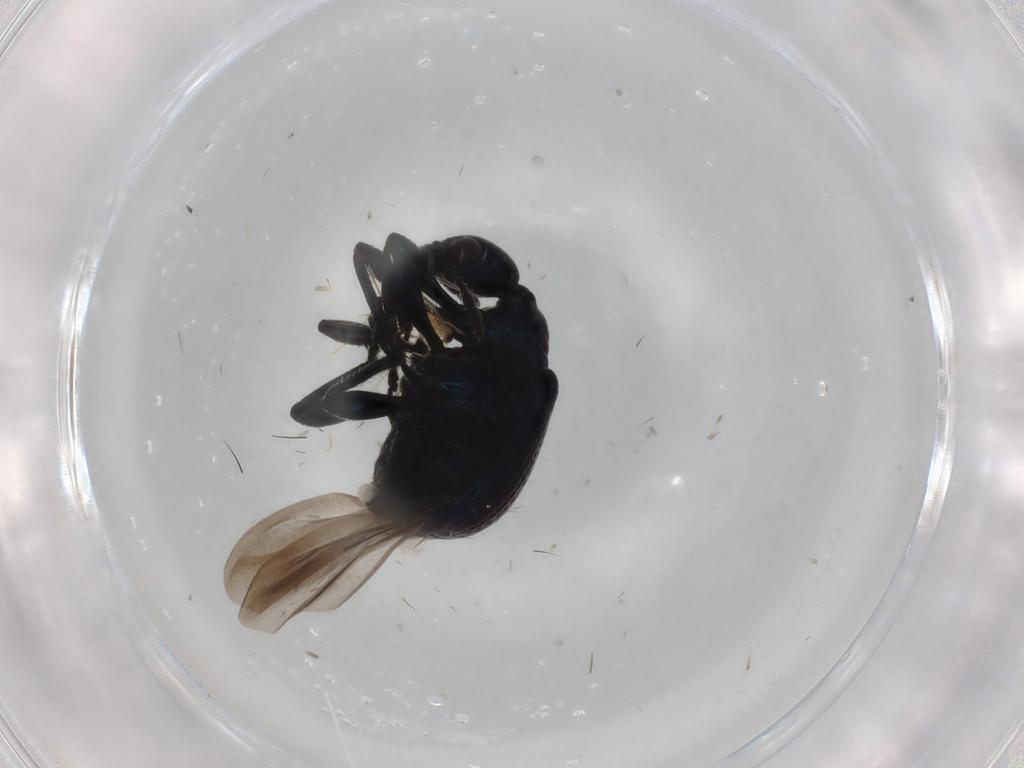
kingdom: Animalia
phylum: Arthropoda
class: Insecta
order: Coleoptera
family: Attelabidae
